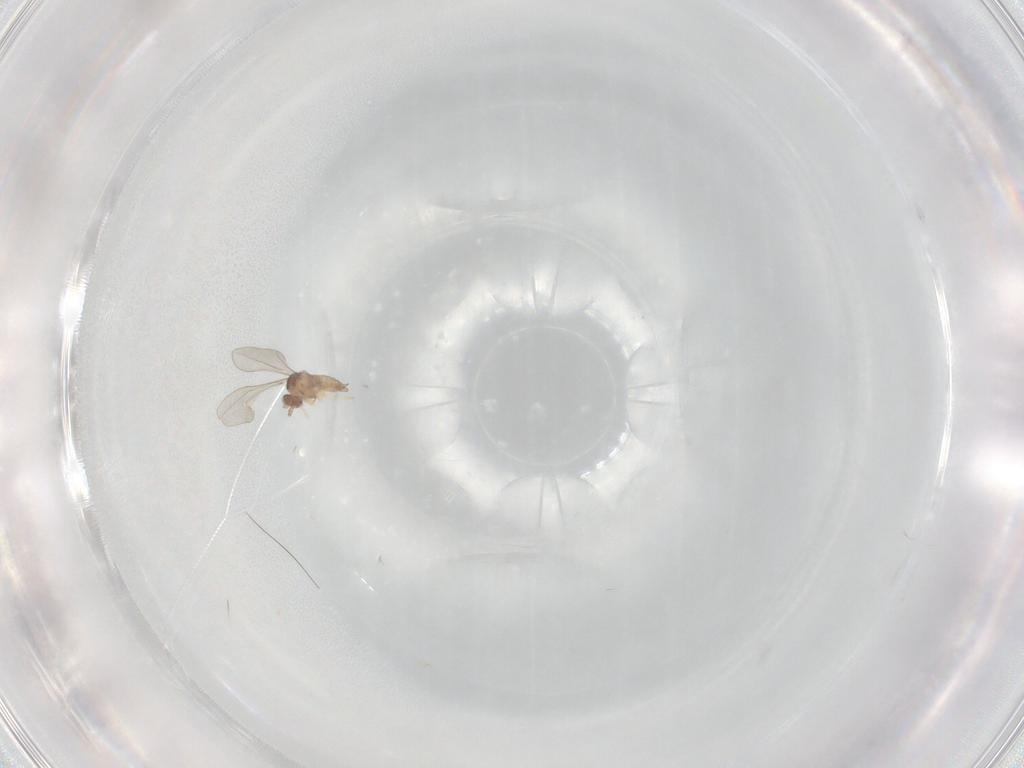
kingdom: Animalia
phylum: Arthropoda
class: Insecta
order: Diptera
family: Cecidomyiidae
